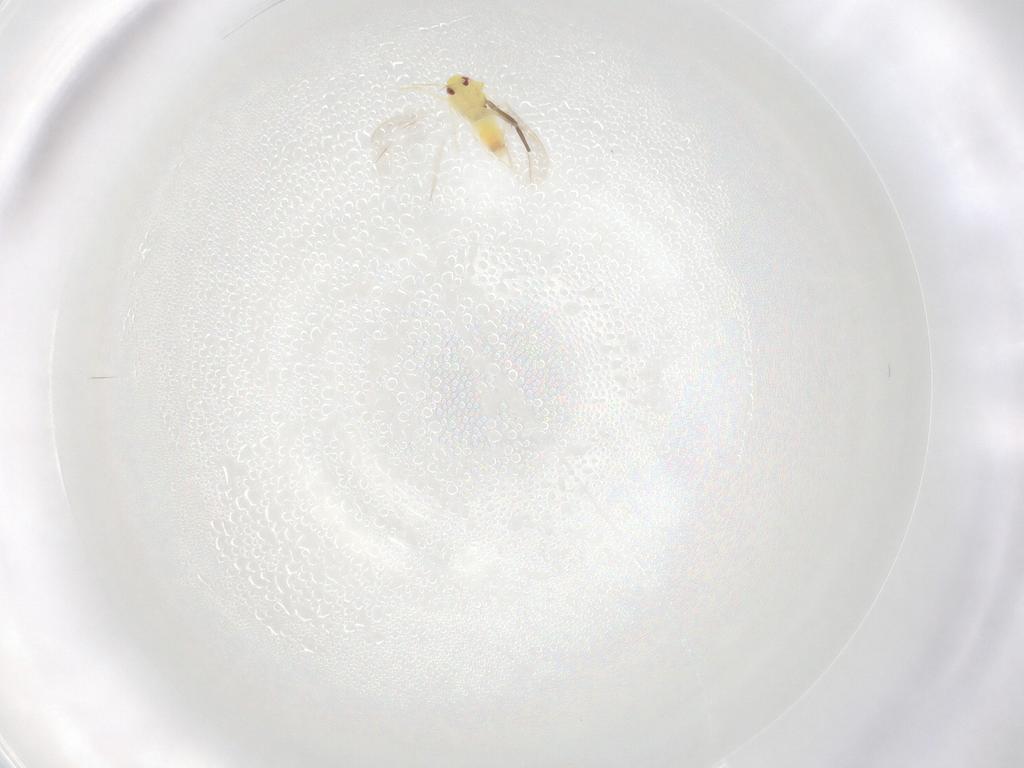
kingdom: Animalia
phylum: Arthropoda
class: Insecta
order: Hemiptera
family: Aleyrodidae
